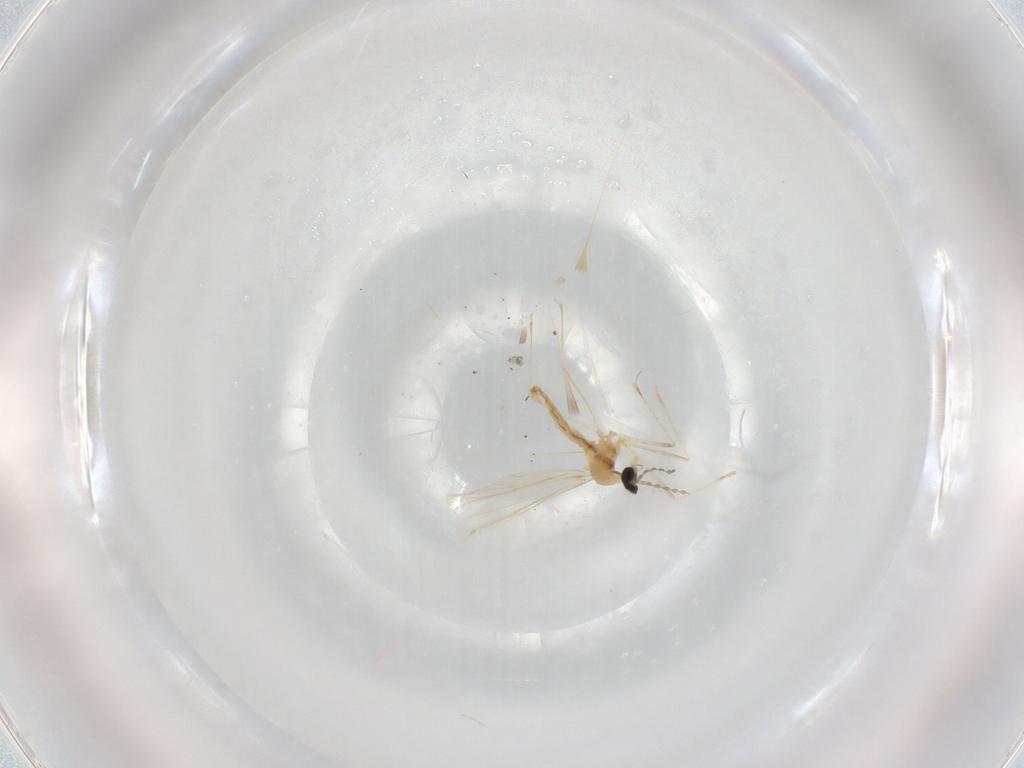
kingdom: Animalia
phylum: Arthropoda
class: Insecta
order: Diptera
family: Cecidomyiidae
